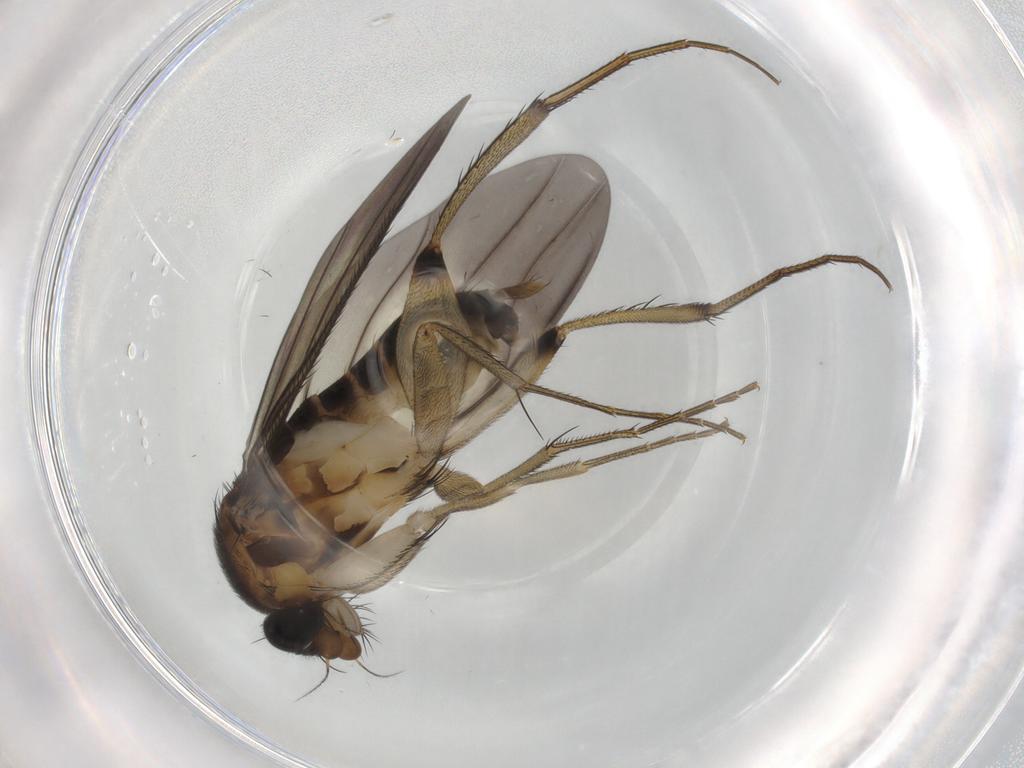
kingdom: Animalia
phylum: Arthropoda
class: Insecta
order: Diptera
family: Phoridae
